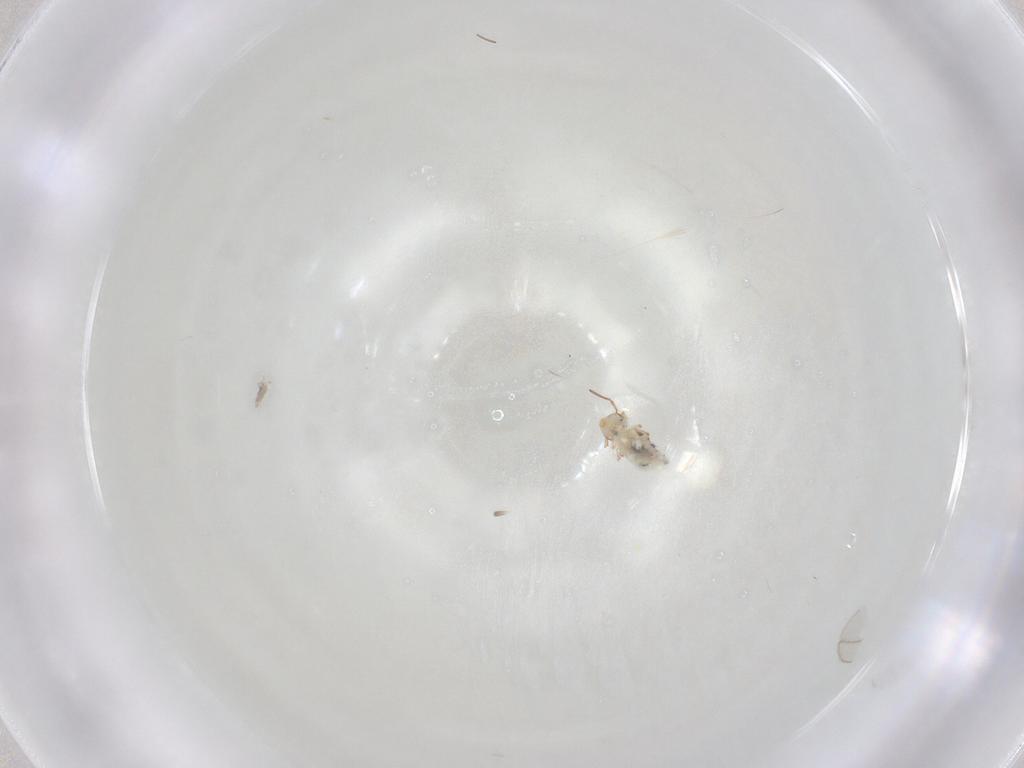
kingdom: Animalia
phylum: Arthropoda
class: Collembola
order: Symphypleona
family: Bourletiellidae
